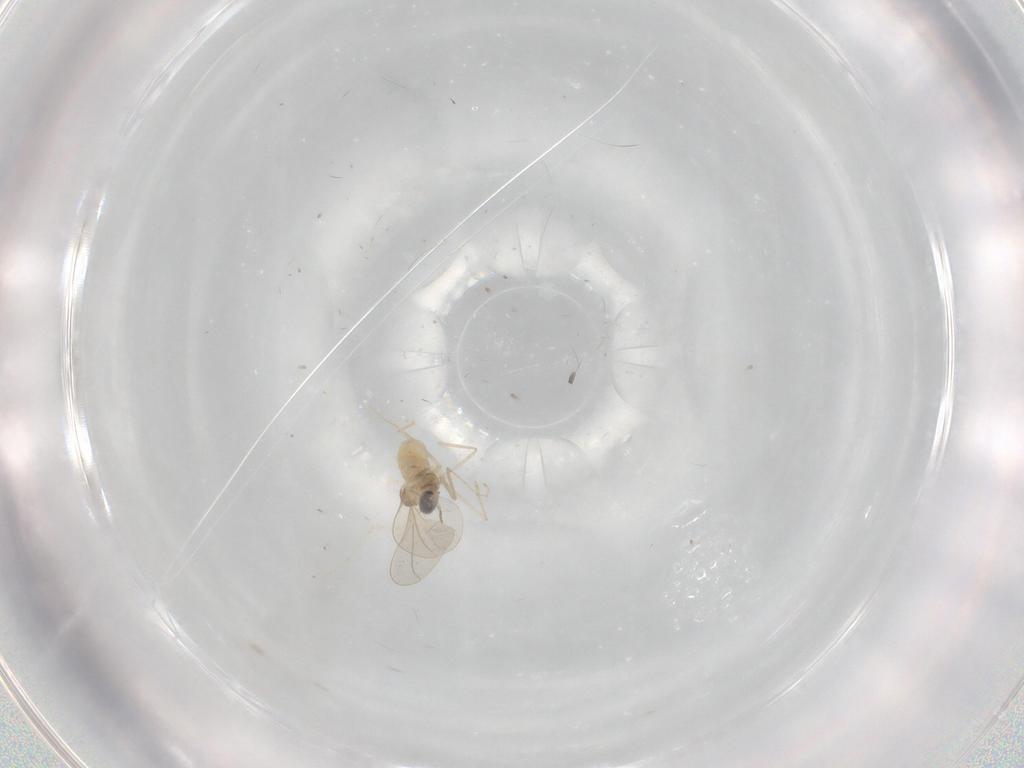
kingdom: Animalia
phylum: Arthropoda
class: Insecta
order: Diptera
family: Cecidomyiidae
